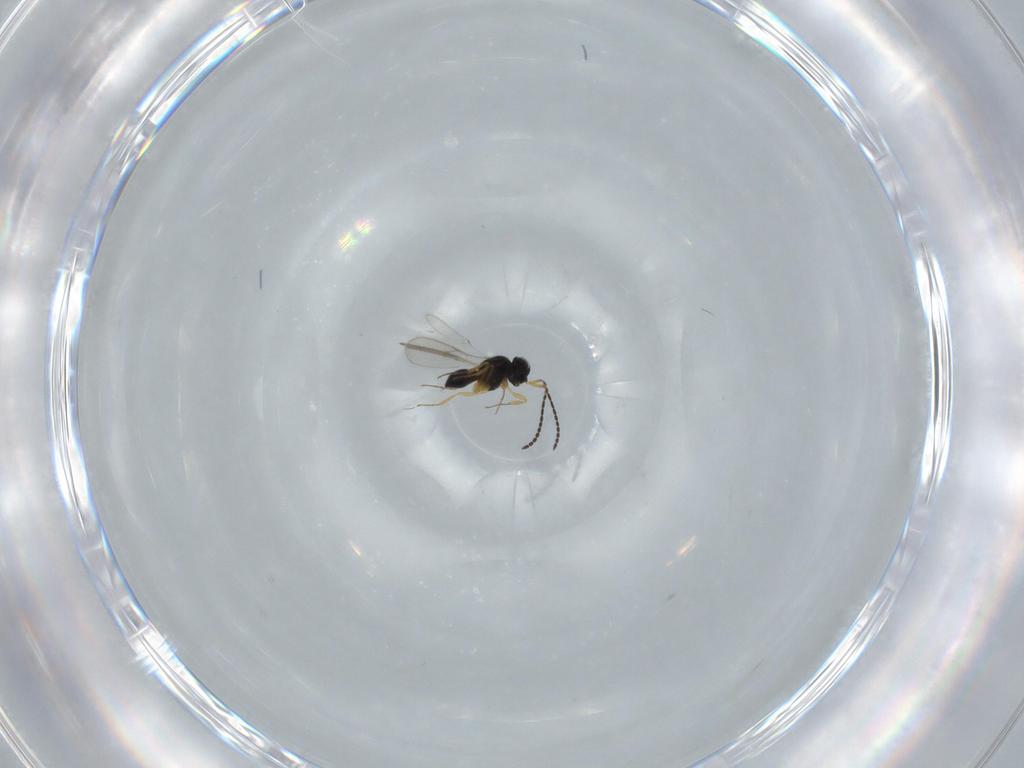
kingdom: Animalia
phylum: Arthropoda
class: Insecta
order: Hymenoptera
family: Scelionidae
